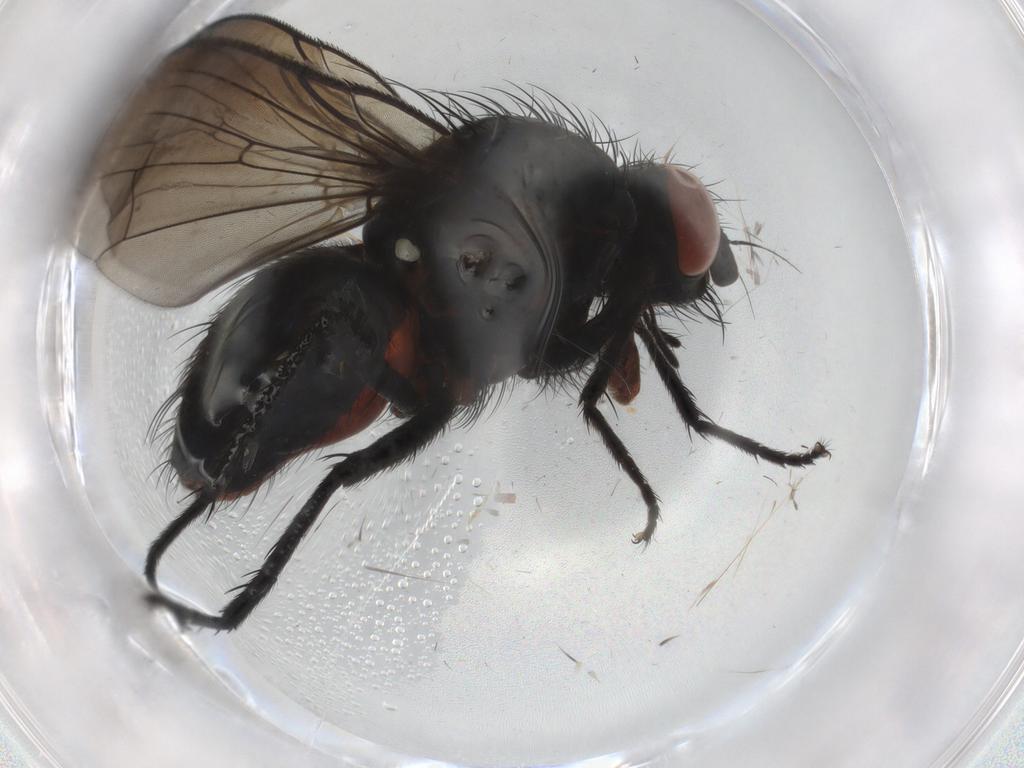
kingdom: Animalia
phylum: Arthropoda
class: Insecta
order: Diptera
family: Anthomyiidae
